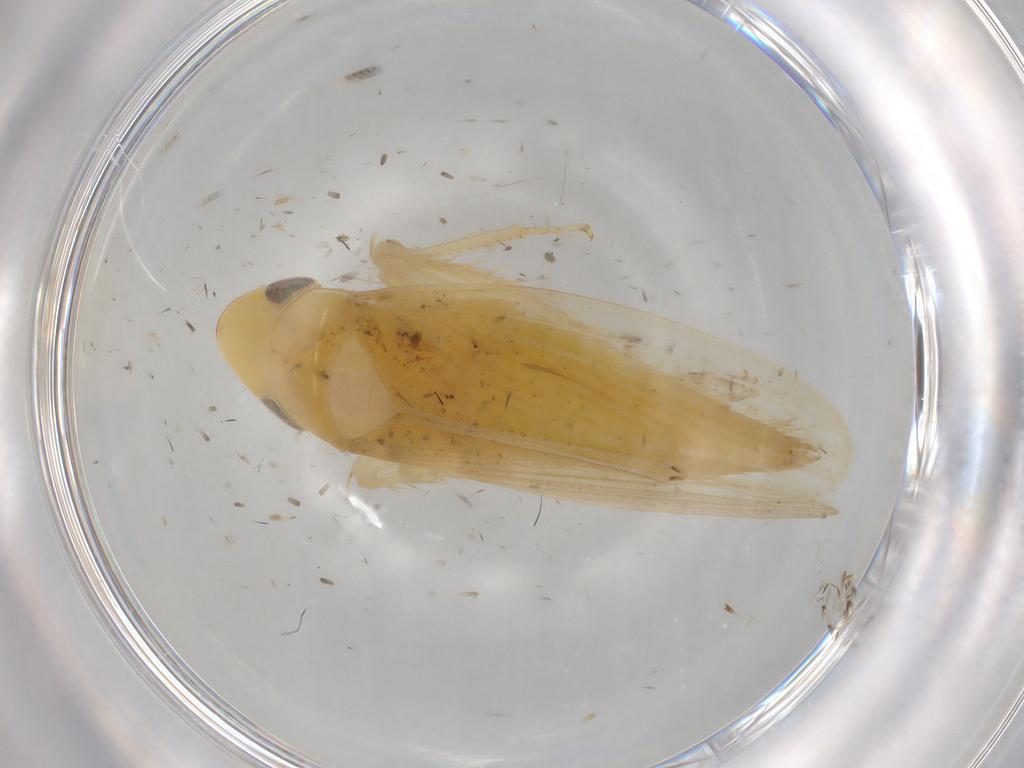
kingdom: Animalia
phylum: Arthropoda
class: Insecta
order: Hemiptera
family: Cicadellidae
